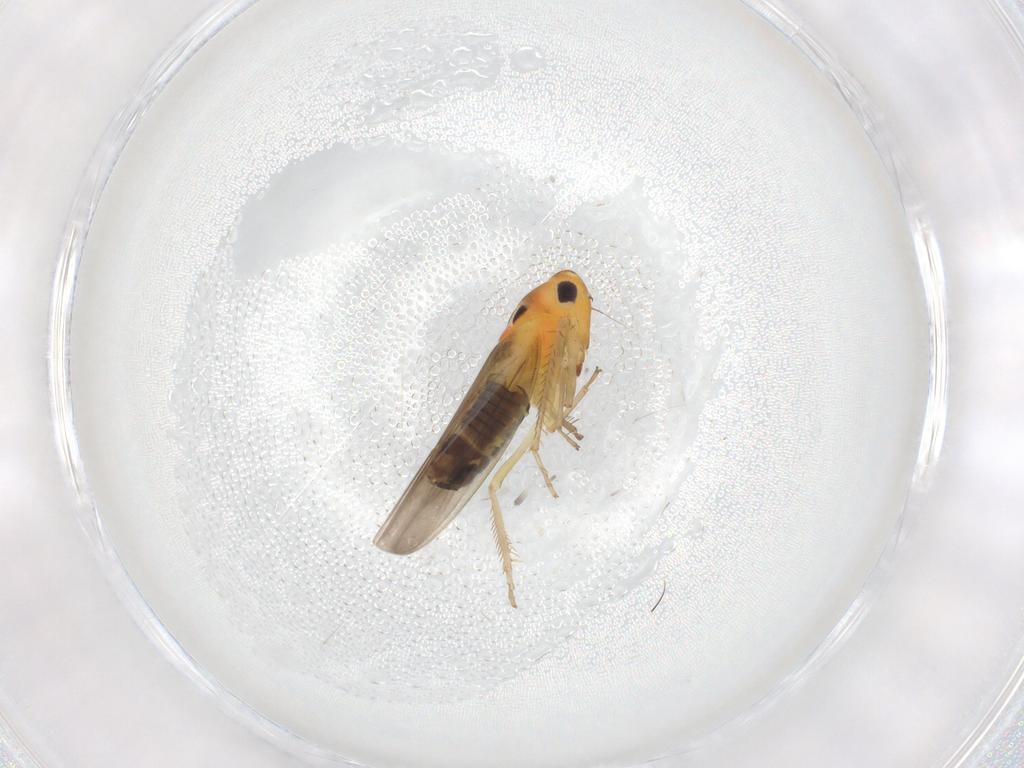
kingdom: Animalia
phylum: Arthropoda
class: Insecta
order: Hemiptera
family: Cicadellidae
